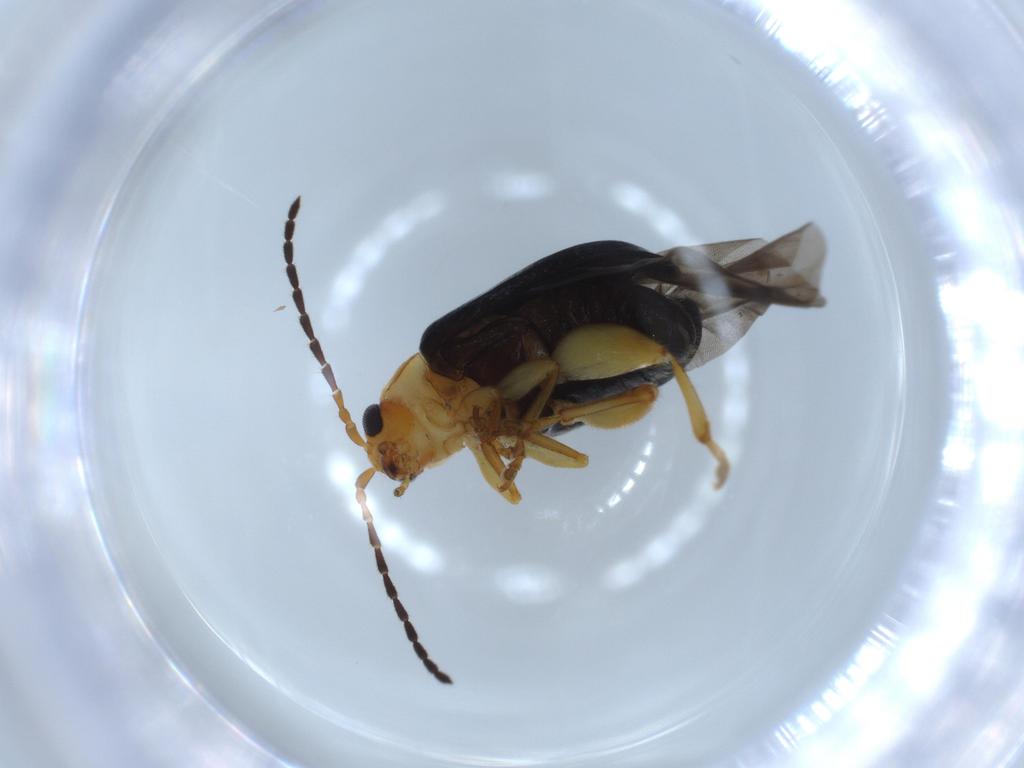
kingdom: Animalia
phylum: Arthropoda
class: Insecta
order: Coleoptera
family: Chrysomelidae
